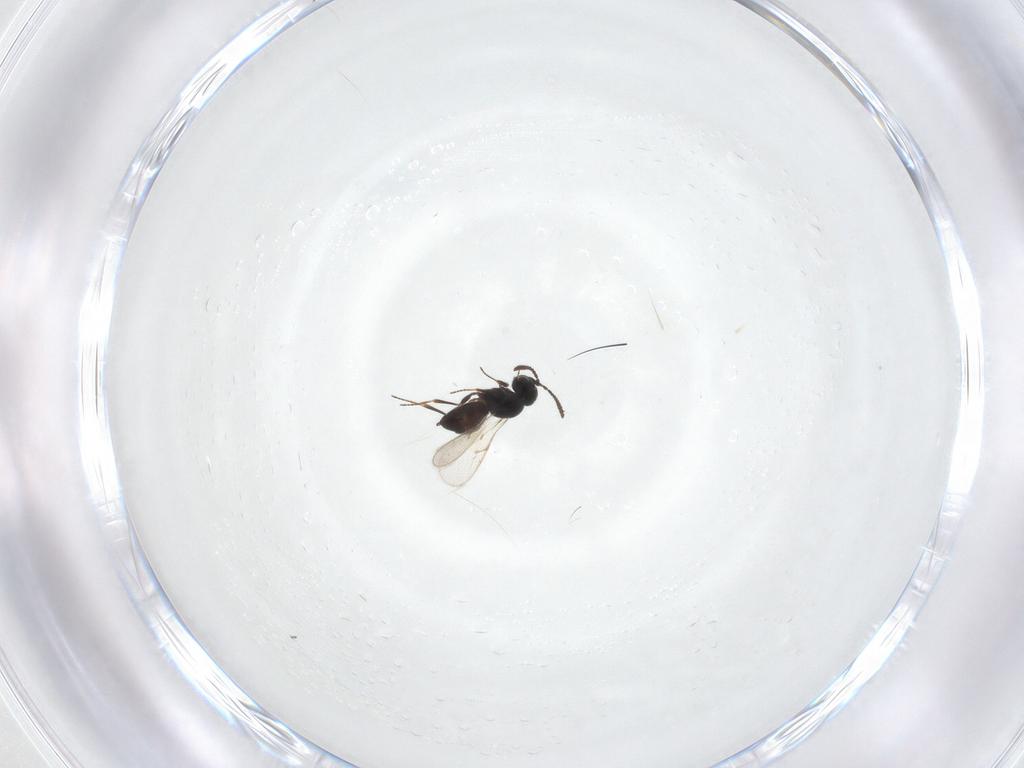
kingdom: Animalia
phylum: Arthropoda
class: Insecta
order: Hymenoptera
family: Scelionidae
